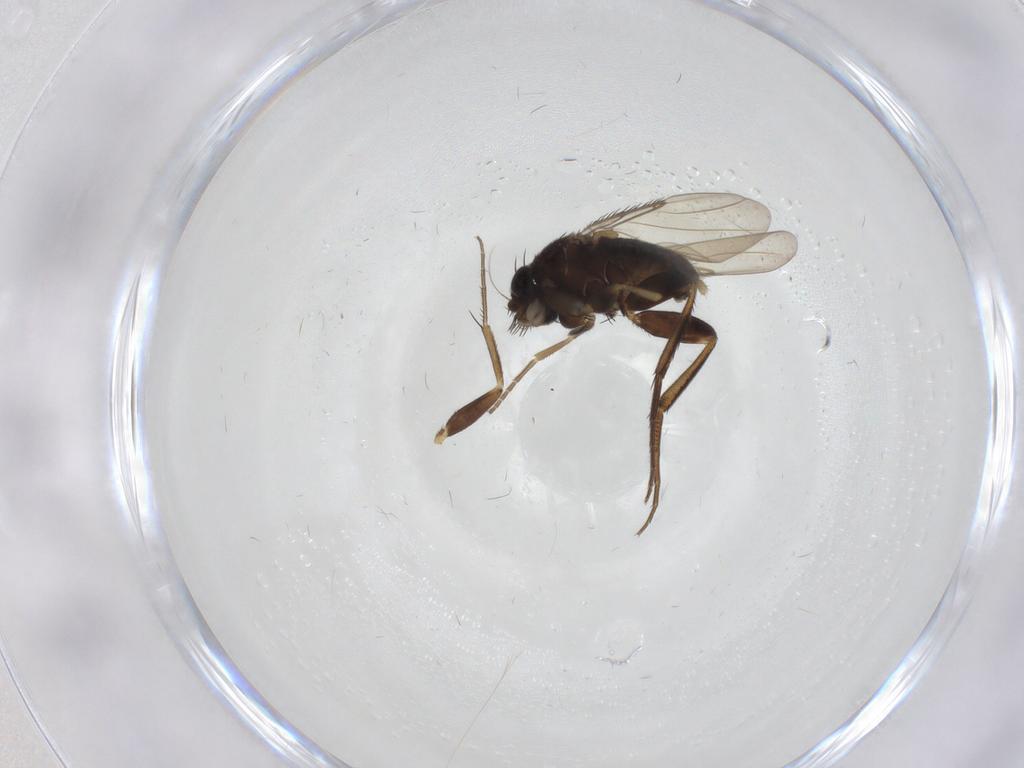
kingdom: Animalia
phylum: Arthropoda
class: Insecta
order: Diptera
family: Phoridae
